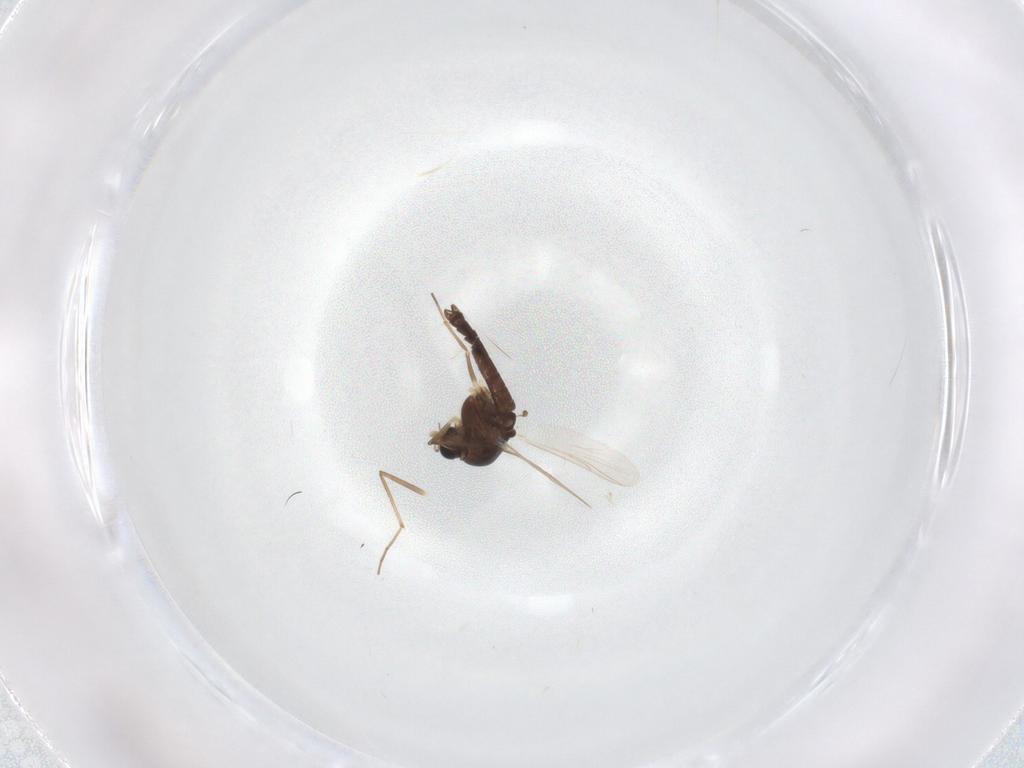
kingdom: Animalia
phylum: Arthropoda
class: Insecta
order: Diptera
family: Chironomidae
